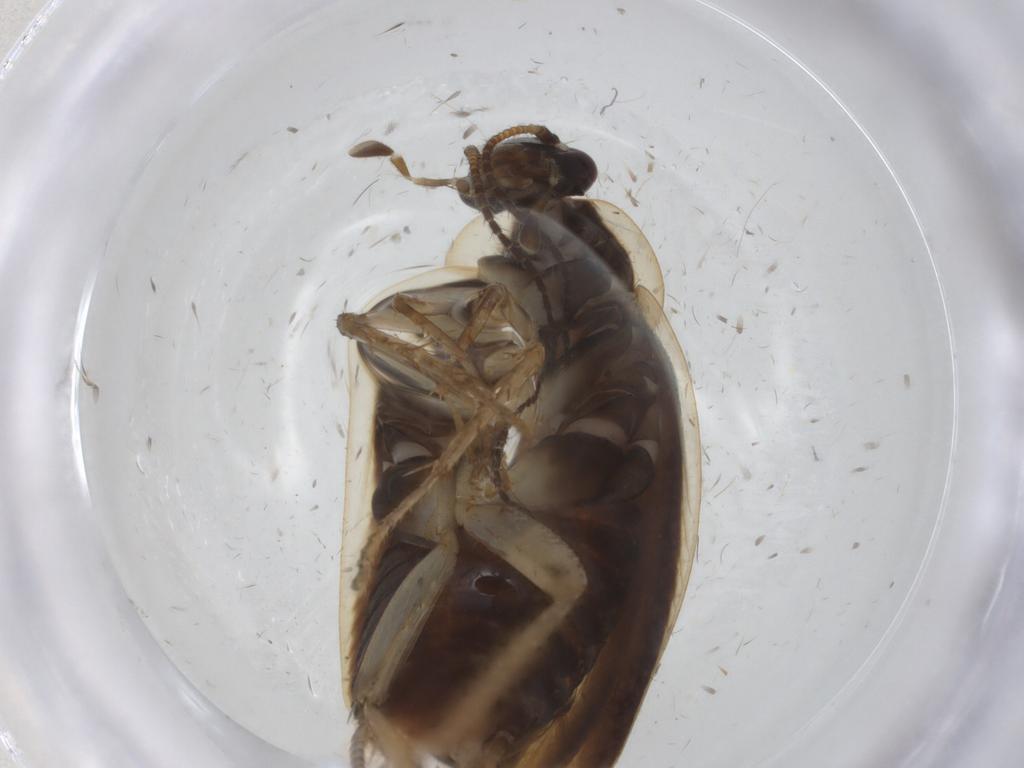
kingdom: Animalia
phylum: Arthropoda
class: Insecta
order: Blattodea
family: Ectobiidae
